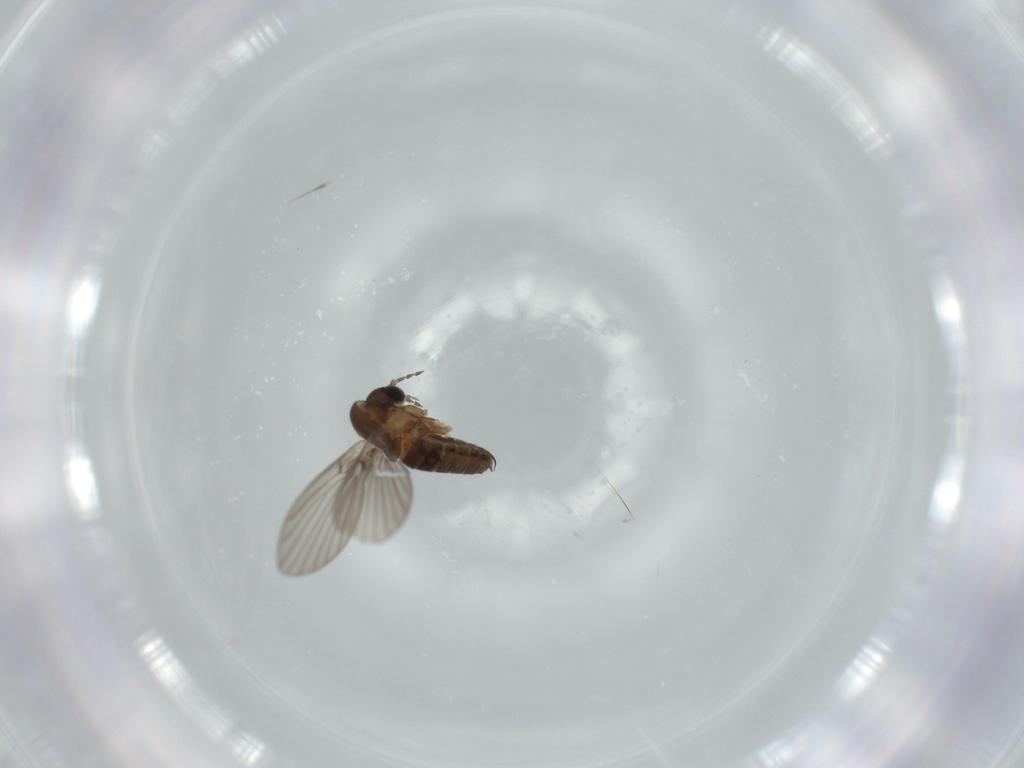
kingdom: Animalia
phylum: Arthropoda
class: Insecta
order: Diptera
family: Psychodidae
